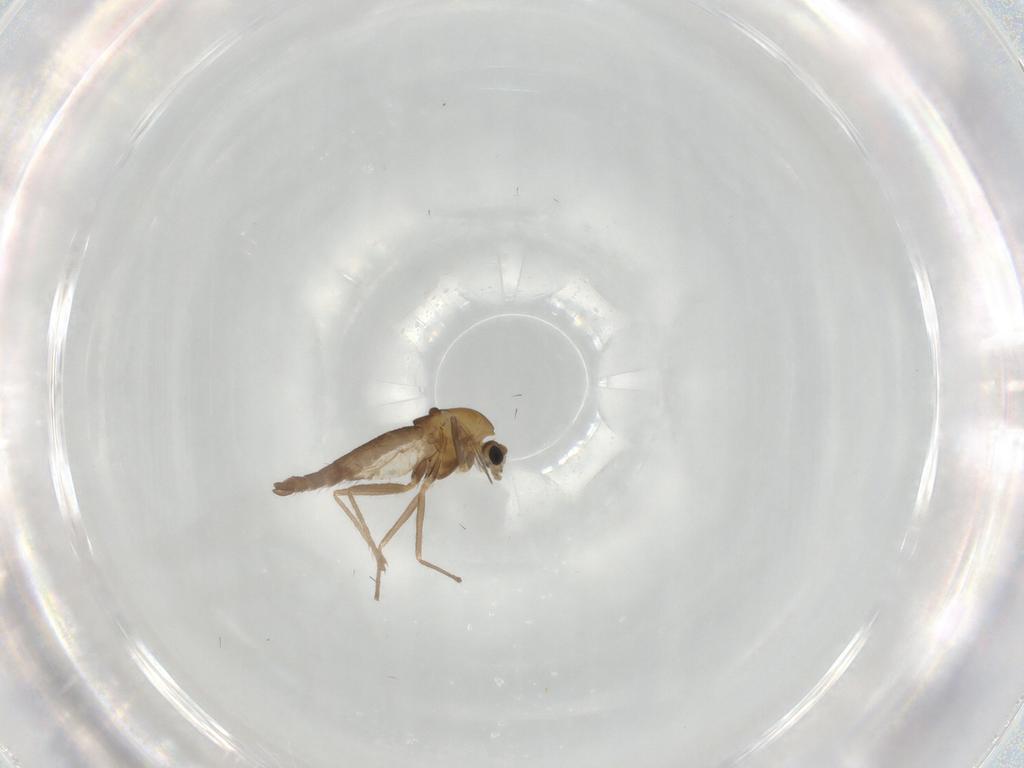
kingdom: Animalia
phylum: Arthropoda
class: Insecta
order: Diptera
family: Chironomidae
